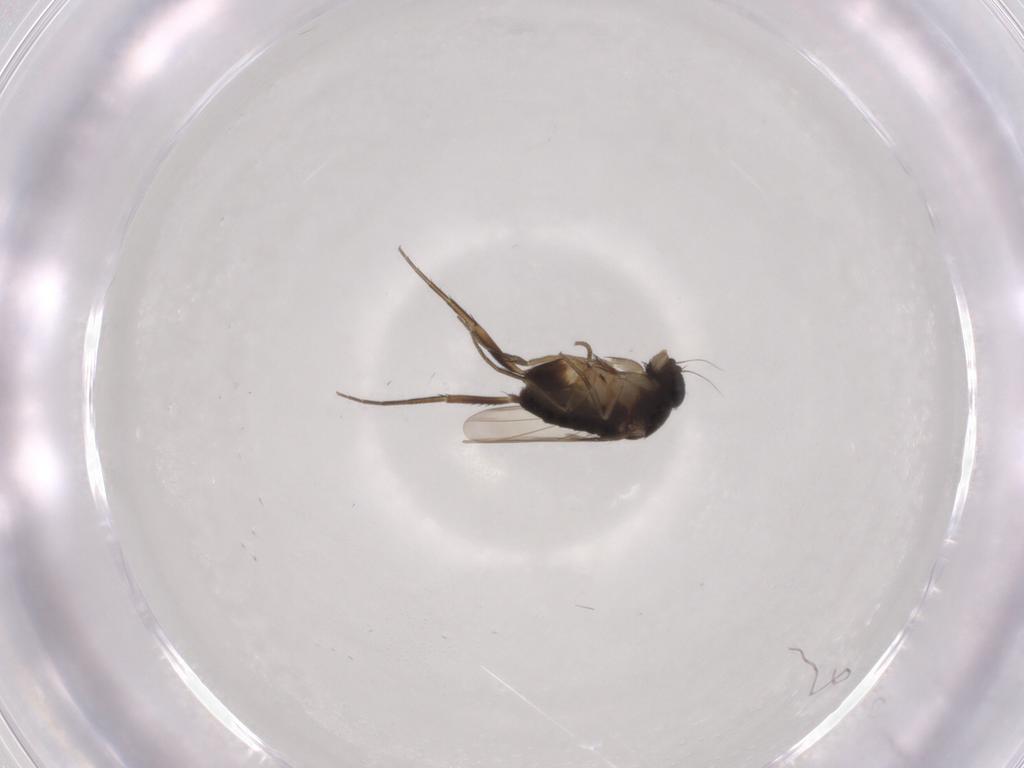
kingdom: Animalia
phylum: Arthropoda
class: Insecta
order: Diptera
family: Phoridae
